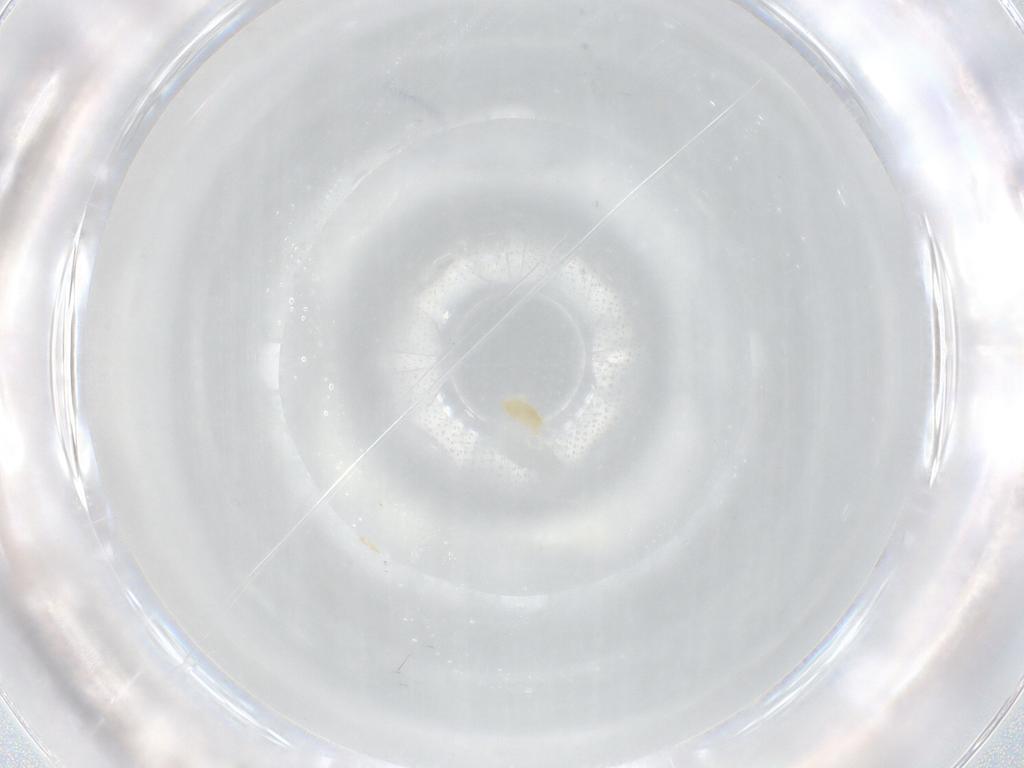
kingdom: Animalia
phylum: Arthropoda
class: Arachnida
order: Trombidiformes
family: Eupodidae
